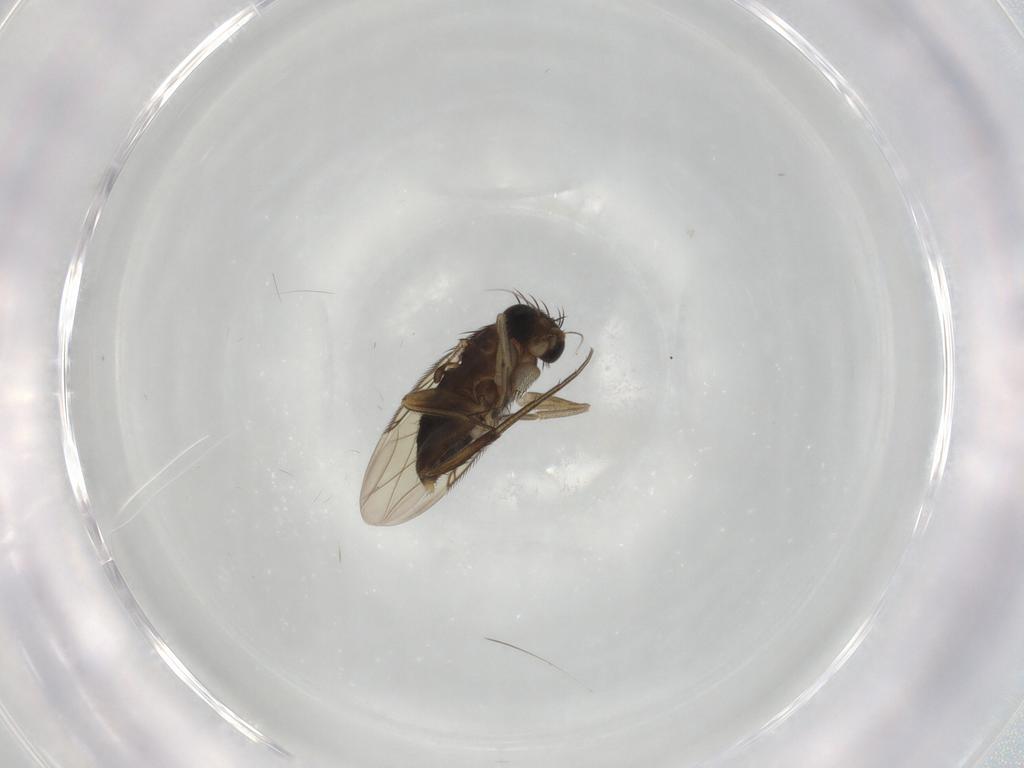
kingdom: Animalia
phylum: Arthropoda
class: Insecta
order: Diptera
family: Phoridae
